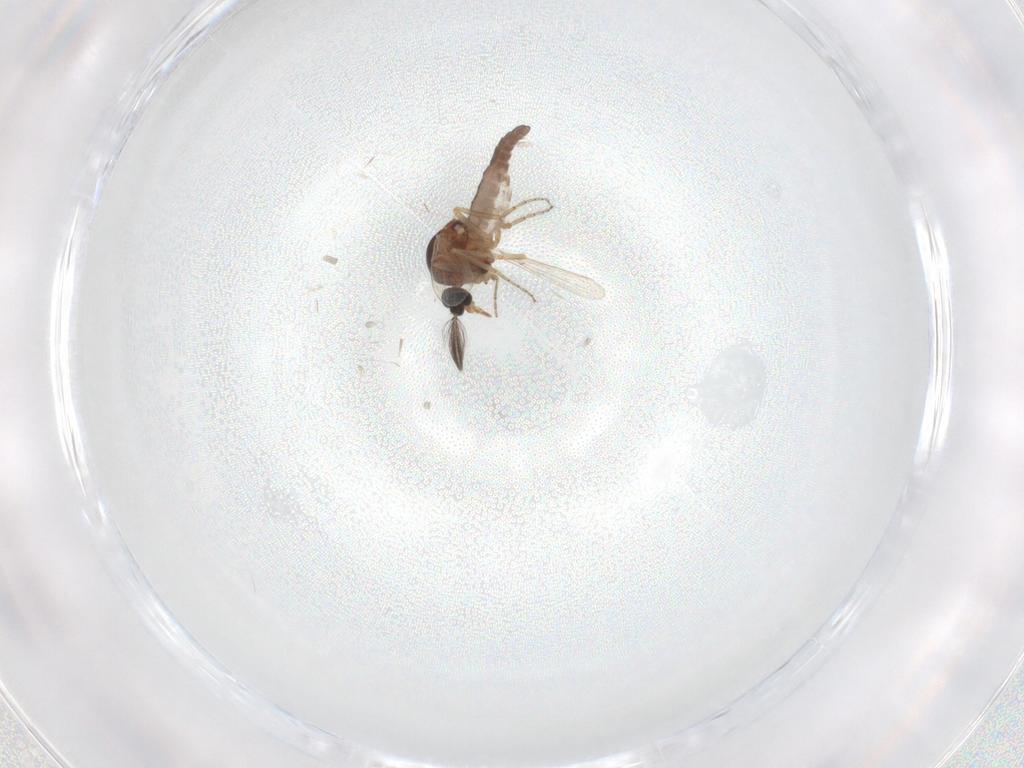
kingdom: Animalia
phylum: Arthropoda
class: Insecta
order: Diptera
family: Ceratopogonidae
